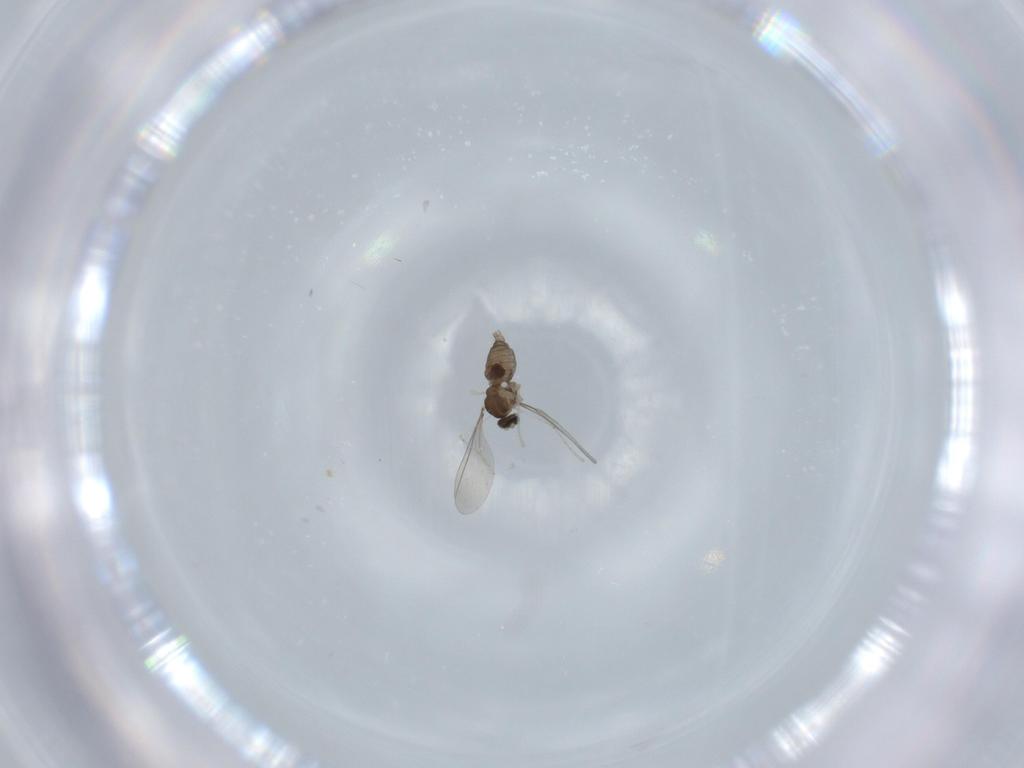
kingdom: Animalia
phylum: Arthropoda
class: Insecta
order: Diptera
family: Cecidomyiidae
